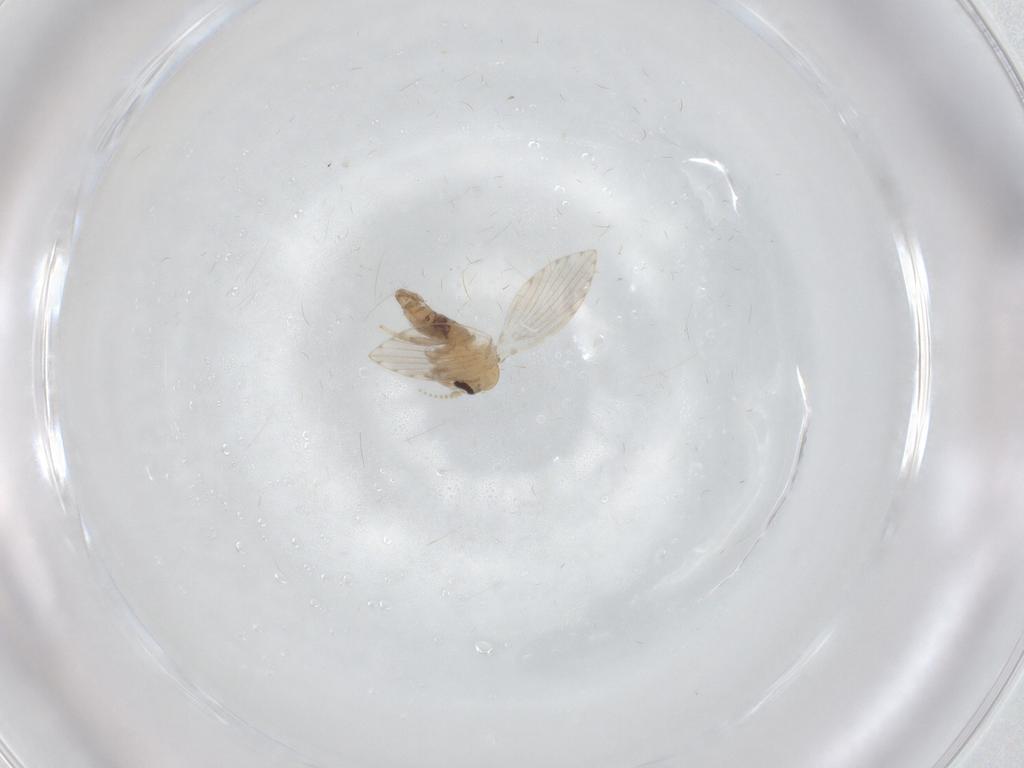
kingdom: Animalia
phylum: Arthropoda
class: Insecta
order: Diptera
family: Psychodidae
